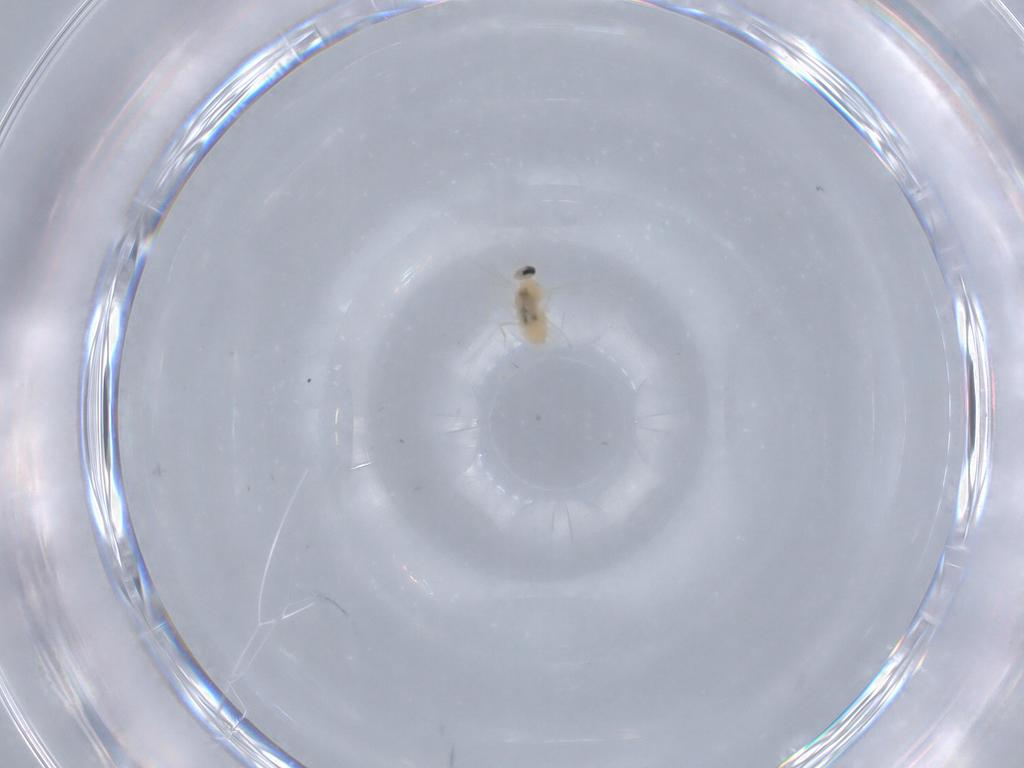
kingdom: Animalia
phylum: Arthropoda
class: Insecta
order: Diptera
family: Cecidomyiidae
